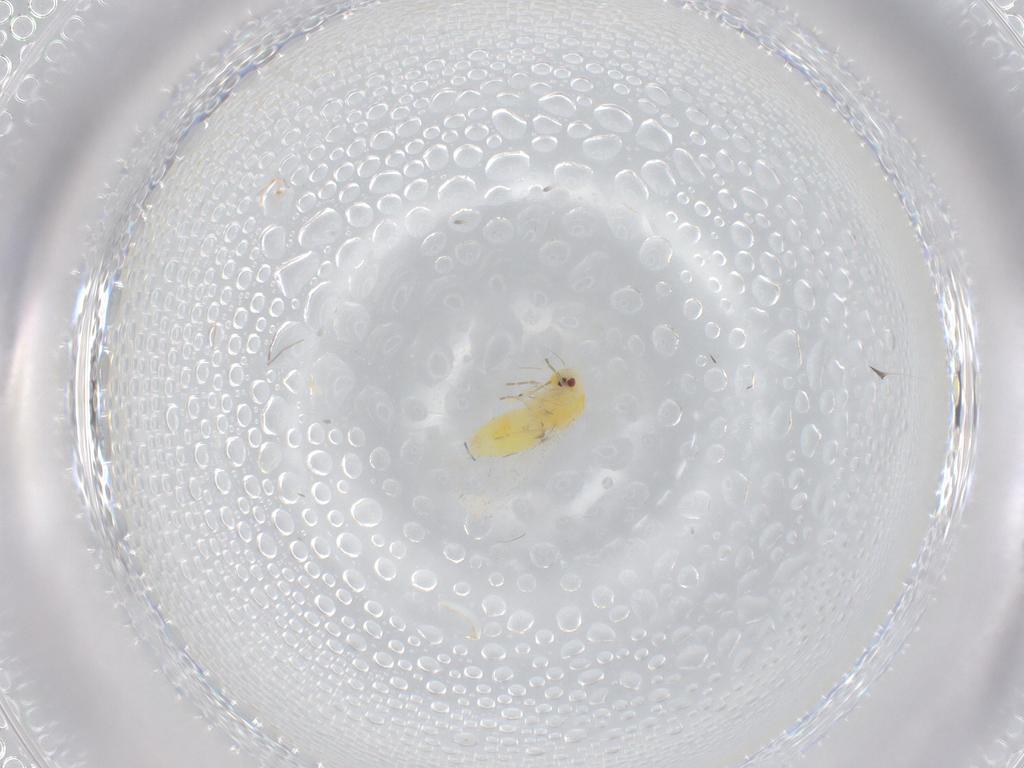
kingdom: Animalia
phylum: Arthropoda
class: Insecta
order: Hemiptera
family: Aleyrodidae
